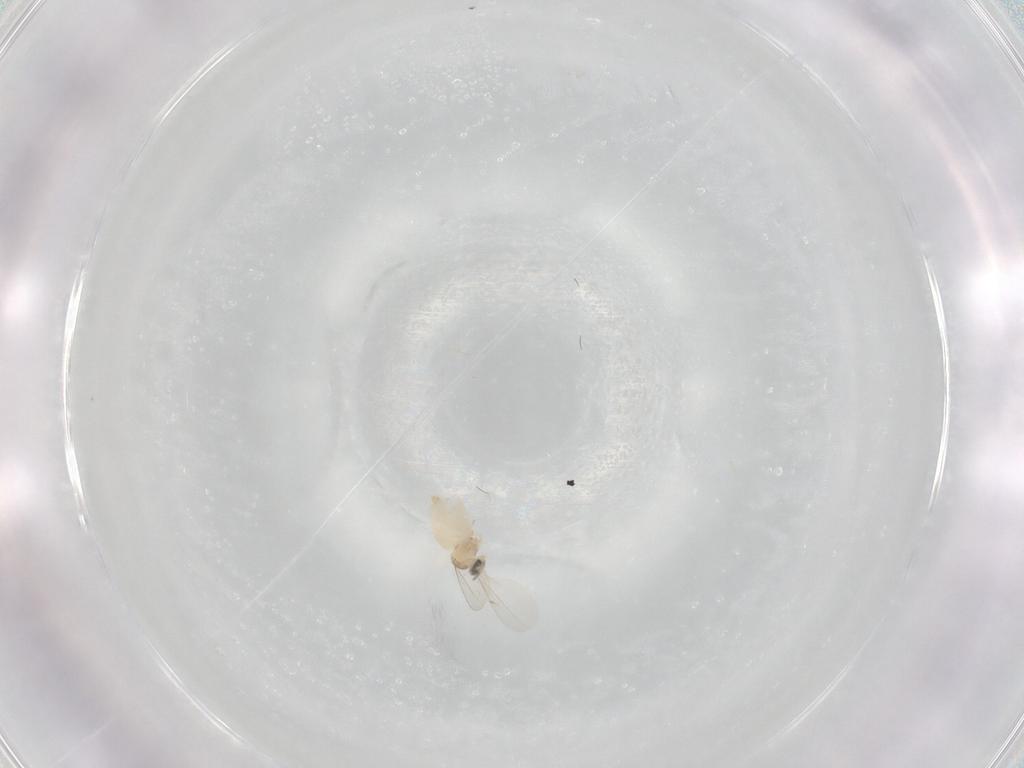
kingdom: Animalia
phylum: Arthropoda
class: Insecta
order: Diptera
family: Cecidomyiidae
